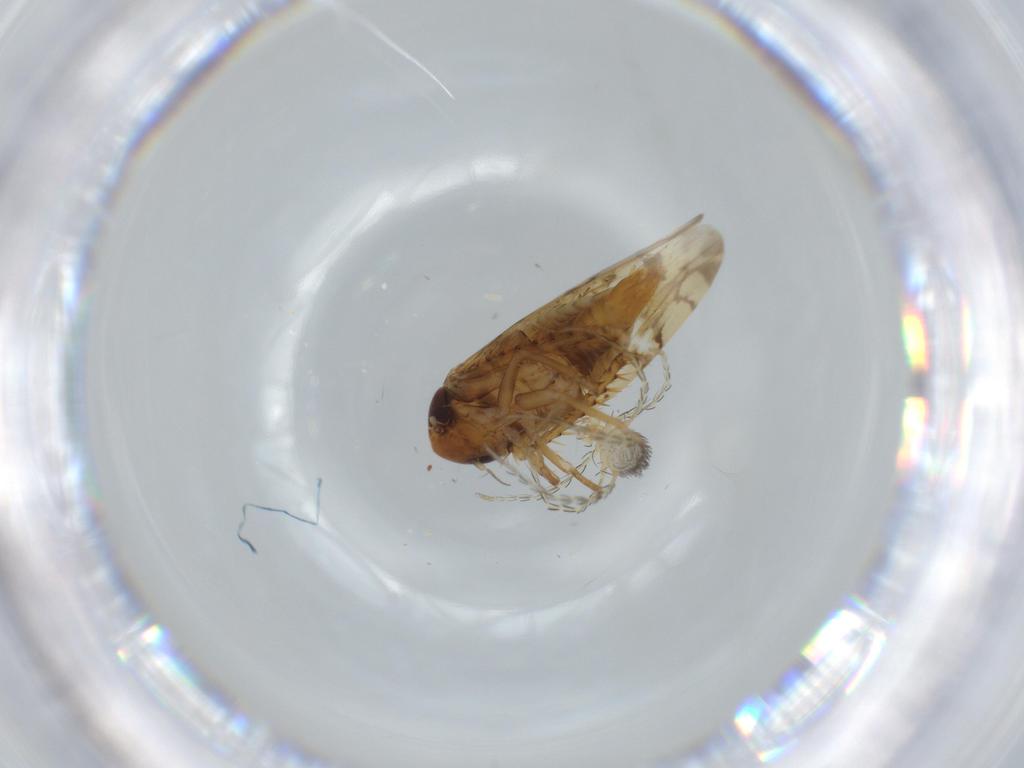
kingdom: Animalia
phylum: Arthropoda
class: Insecta
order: Hemiptera
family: Cicadellidae
